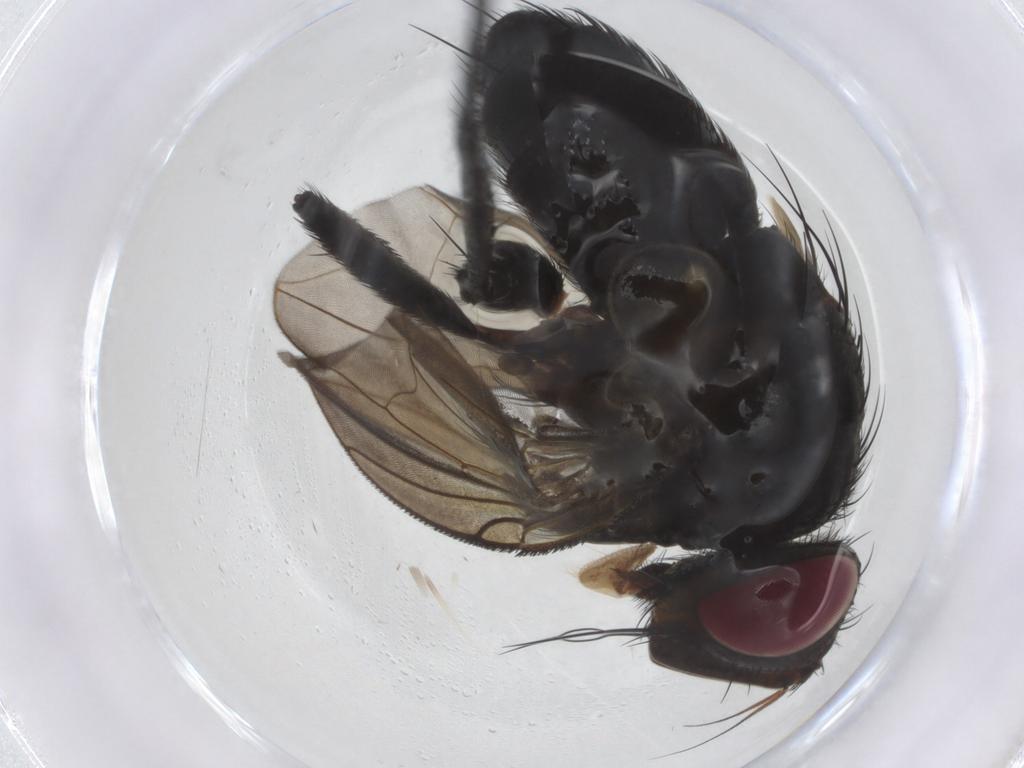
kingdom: Animalia
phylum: Arthropoda
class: Insecta
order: Diptera
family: Tachinidae
